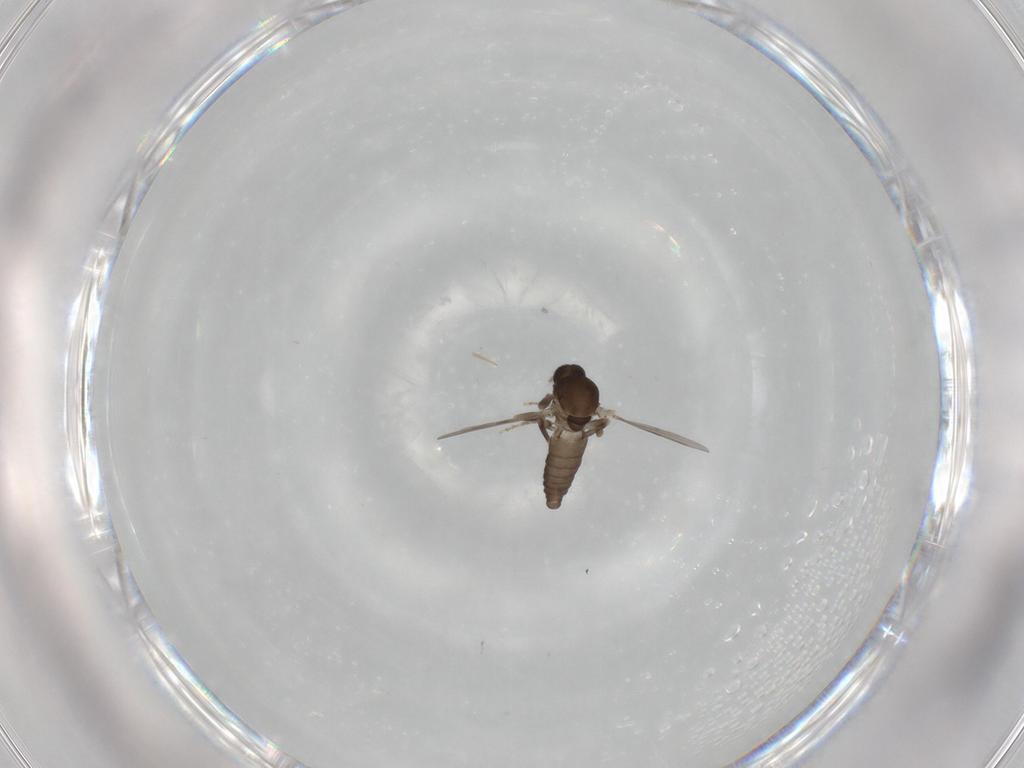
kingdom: Animalia
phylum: Arthropoda
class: Insecta
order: Diptera
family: Ceratopogonidae
